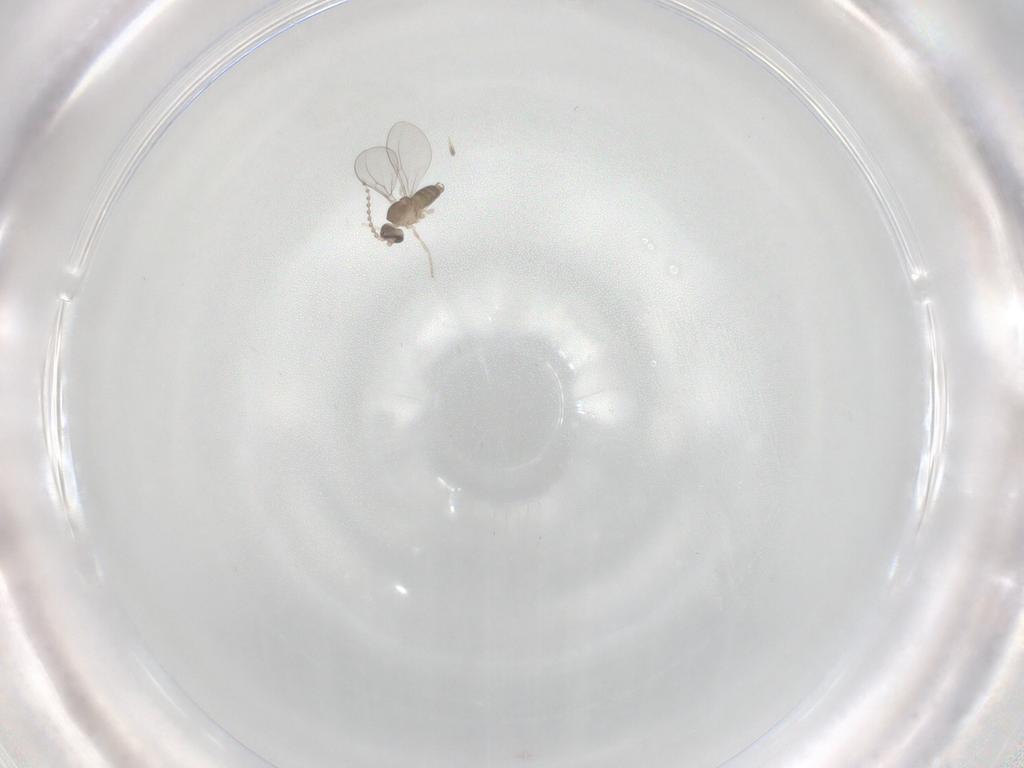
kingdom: Animalia
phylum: Arthropoda
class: Insecta
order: Diptera
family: Cecidomyiidae
